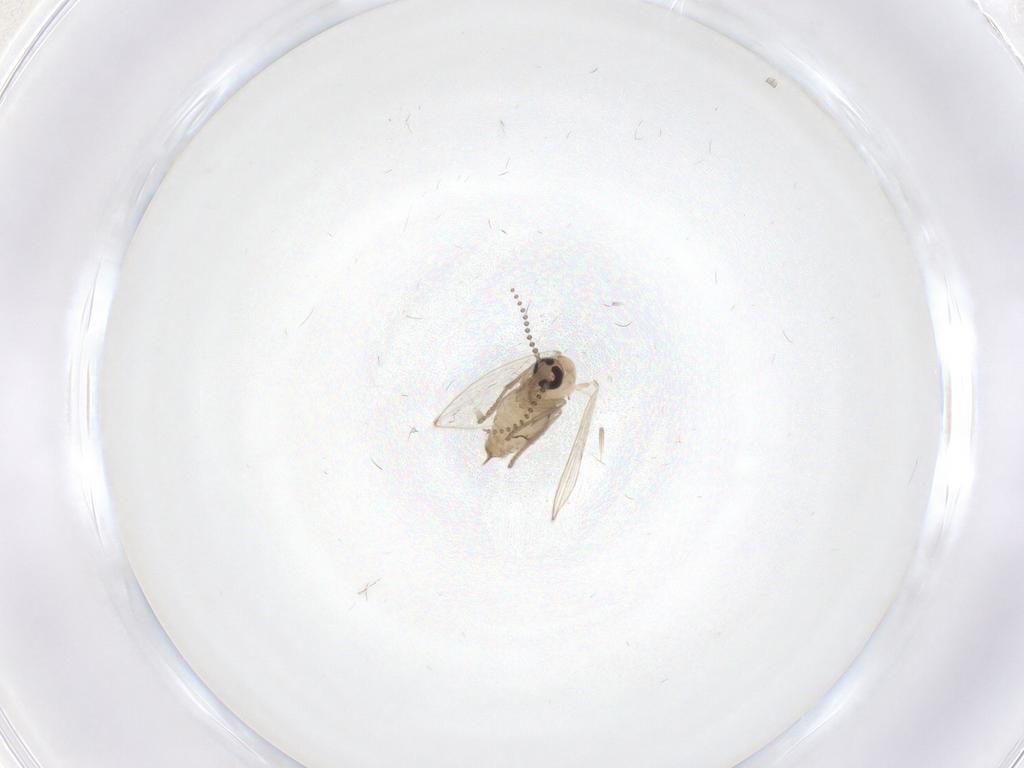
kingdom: Animalia
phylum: Arthropoda
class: Insecta
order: Diptera
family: Psychodidae
